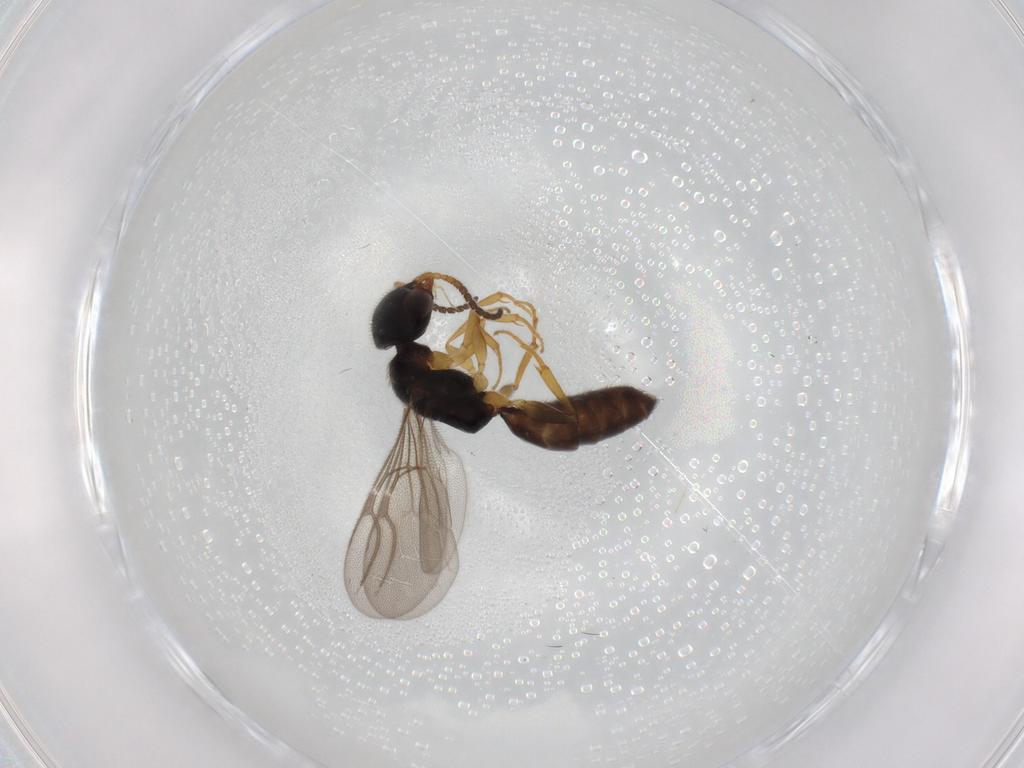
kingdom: Animalia
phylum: Arthropoda
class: Insecta
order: Hymenoptera
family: Bethylidae
